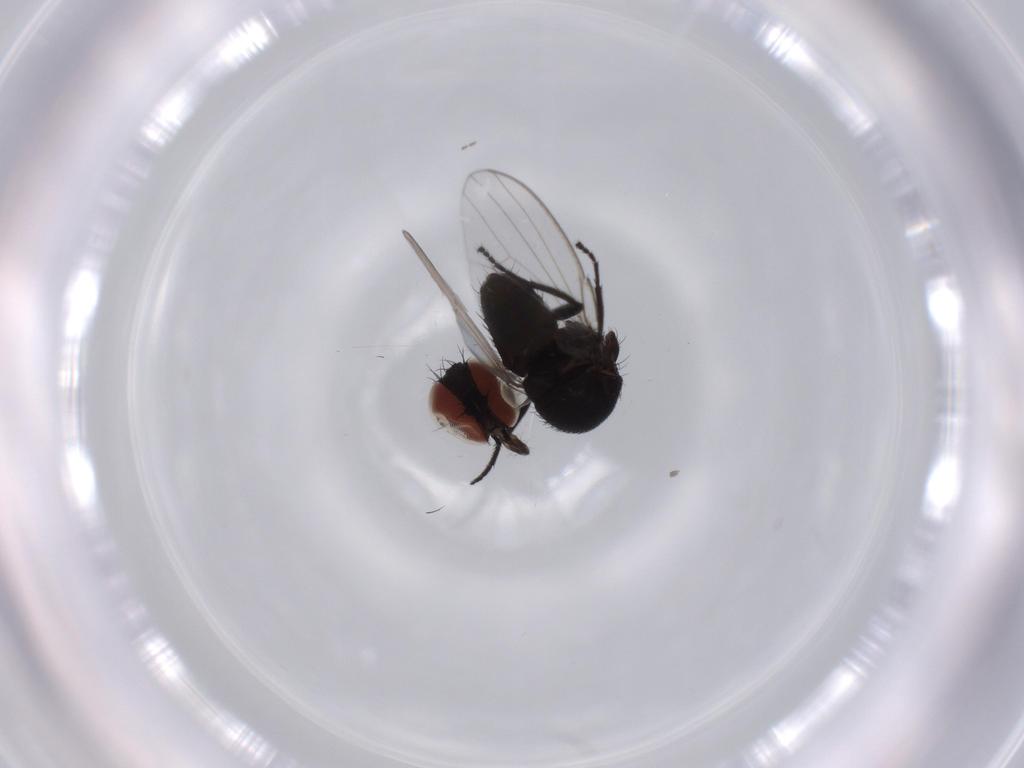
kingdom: Animalia
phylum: Arthropoda
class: Insecta
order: Diptera
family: Milichiidae
